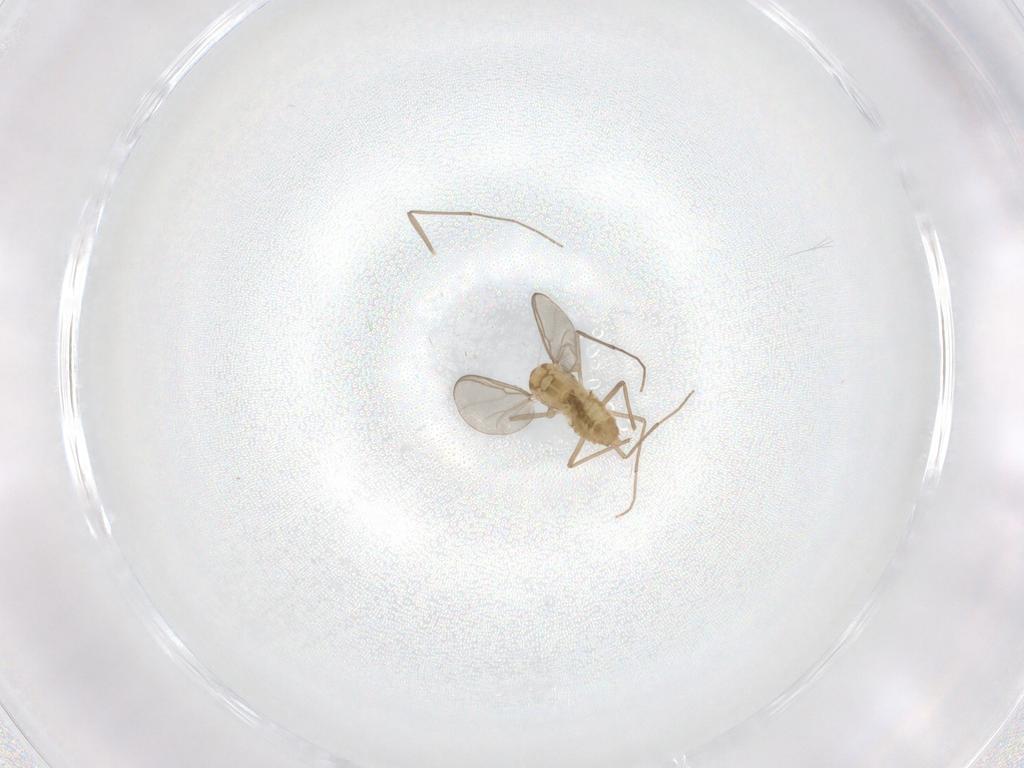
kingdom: Animalia
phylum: Arthropoda
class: Insecta
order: Diptera
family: Chironomidae
